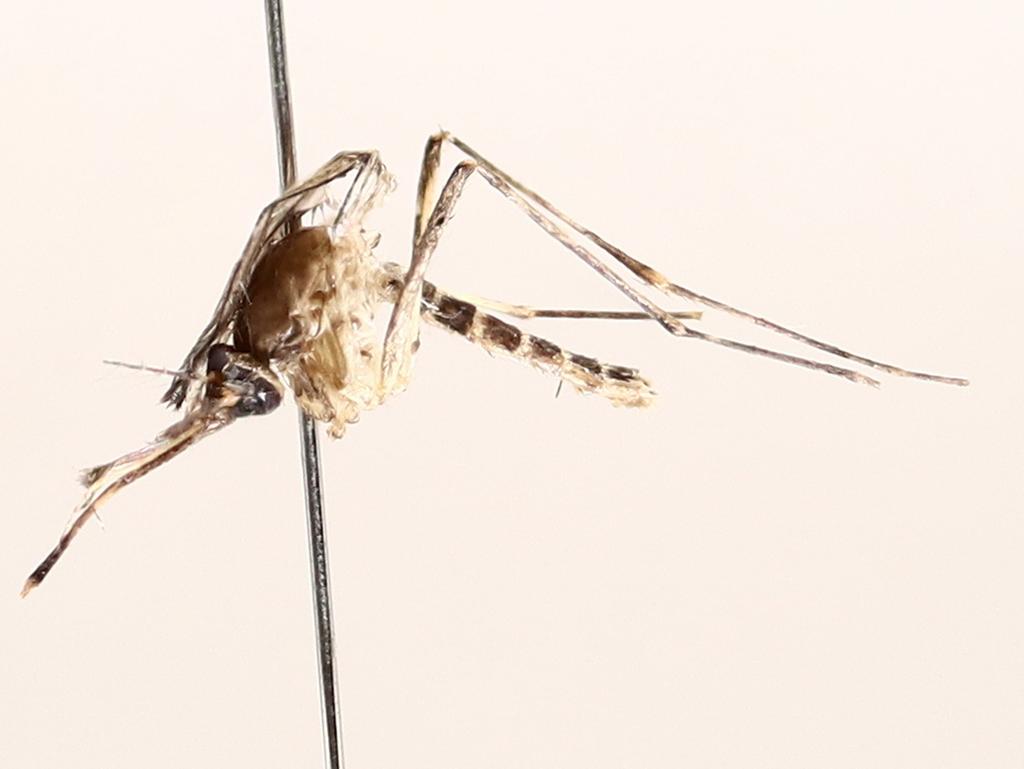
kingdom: Animalia
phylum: Arthropoda
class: Insecta
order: Diptera
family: Cecidomyiidae
